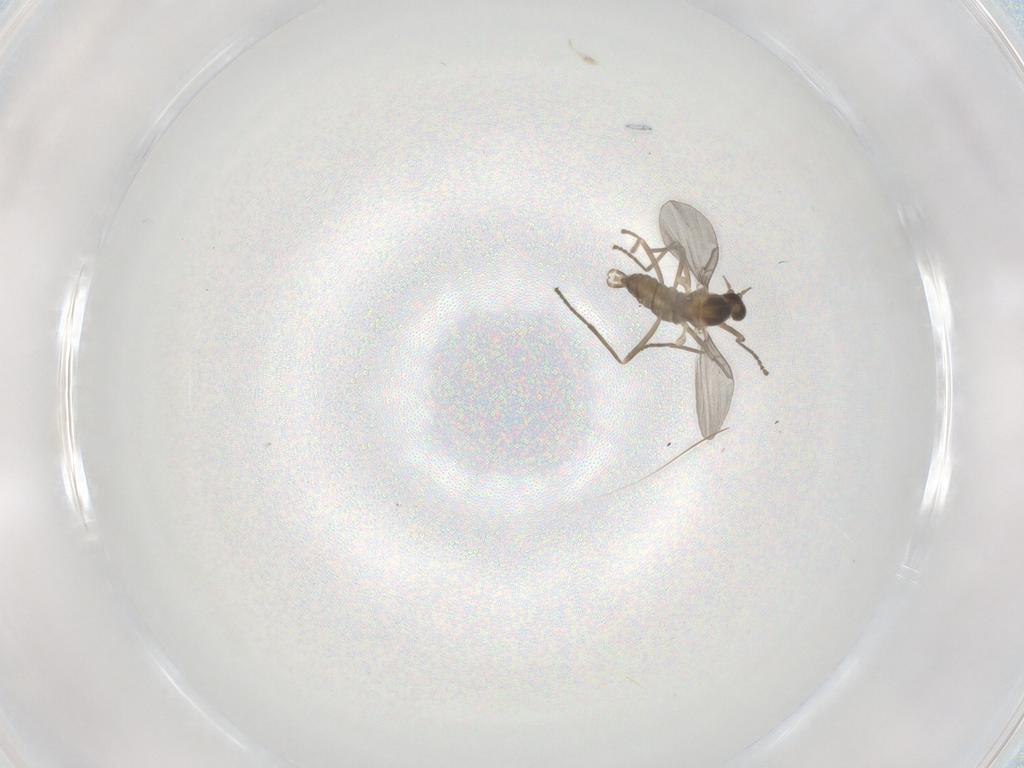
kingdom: Animalia
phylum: Arthropoda
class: Insecta
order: Diptera
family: Cecidomyiidae
